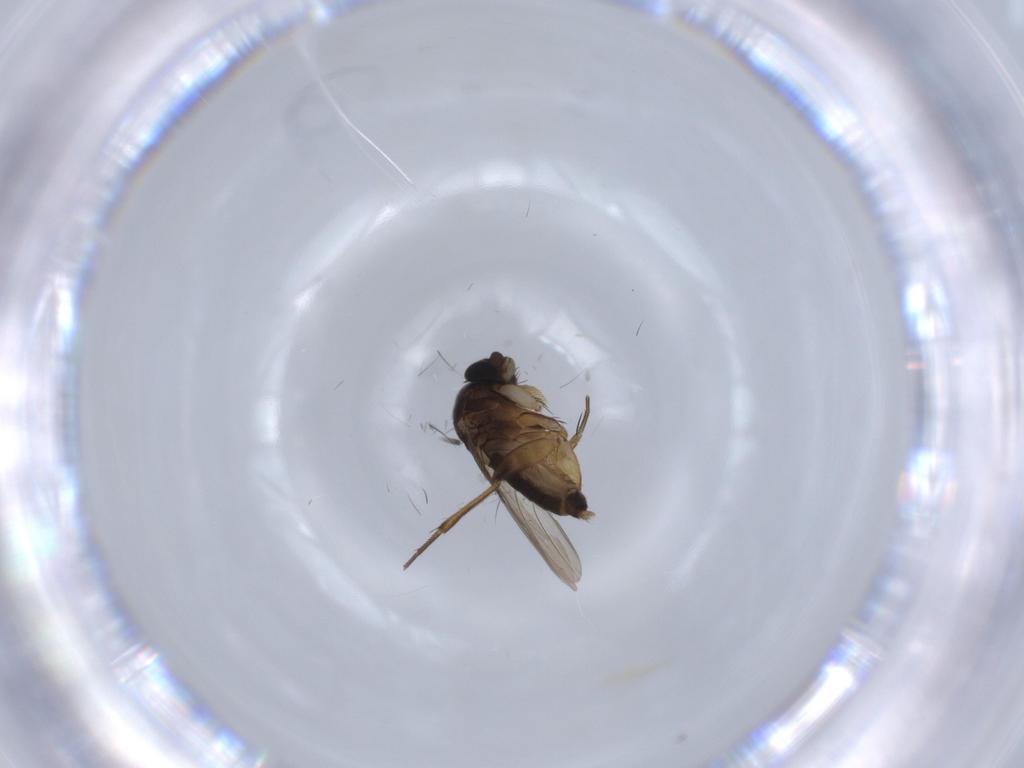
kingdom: Animalia
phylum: Arthropoda
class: Insecta
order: Diptera
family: Phoridae
